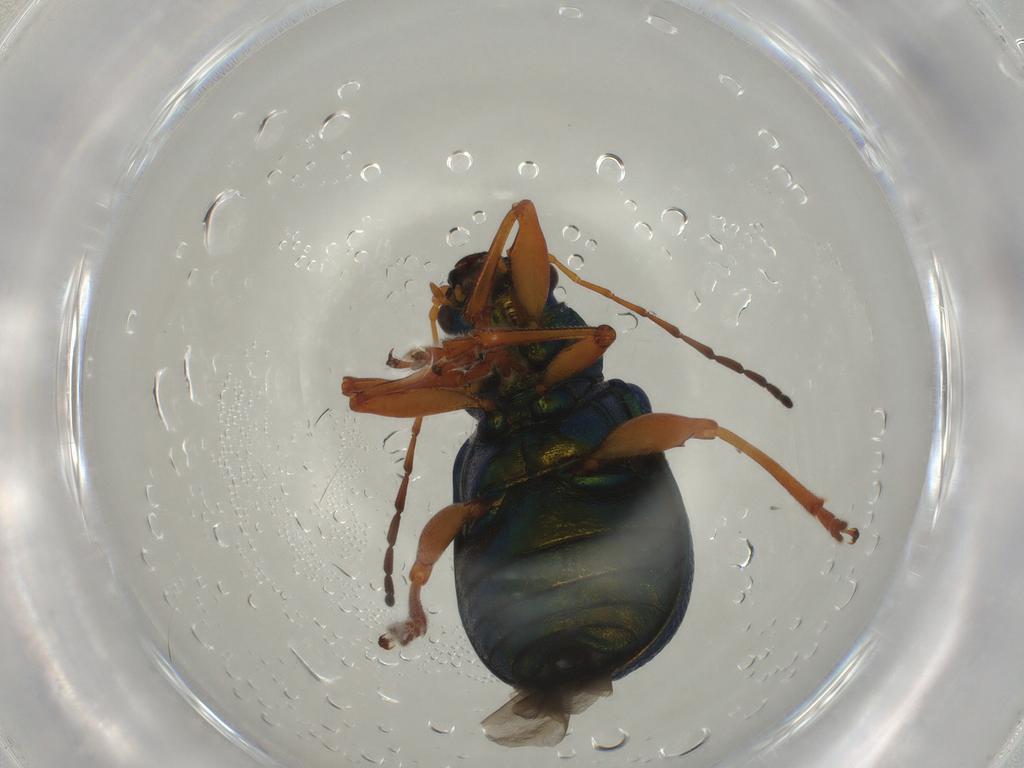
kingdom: Animalia
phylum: Arthropoda
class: Insecta
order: Coleoptera
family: Chrysomelidae
